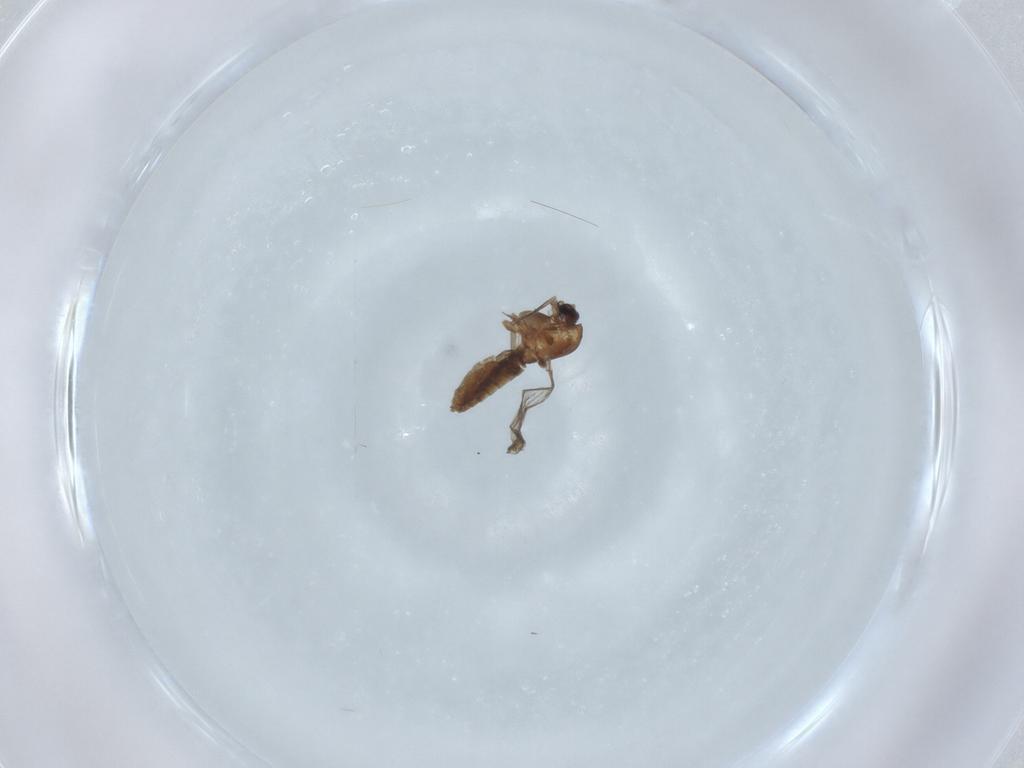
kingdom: Animalia
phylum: Arthropoda
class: Insecta
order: Diptera
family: Chironomidae
